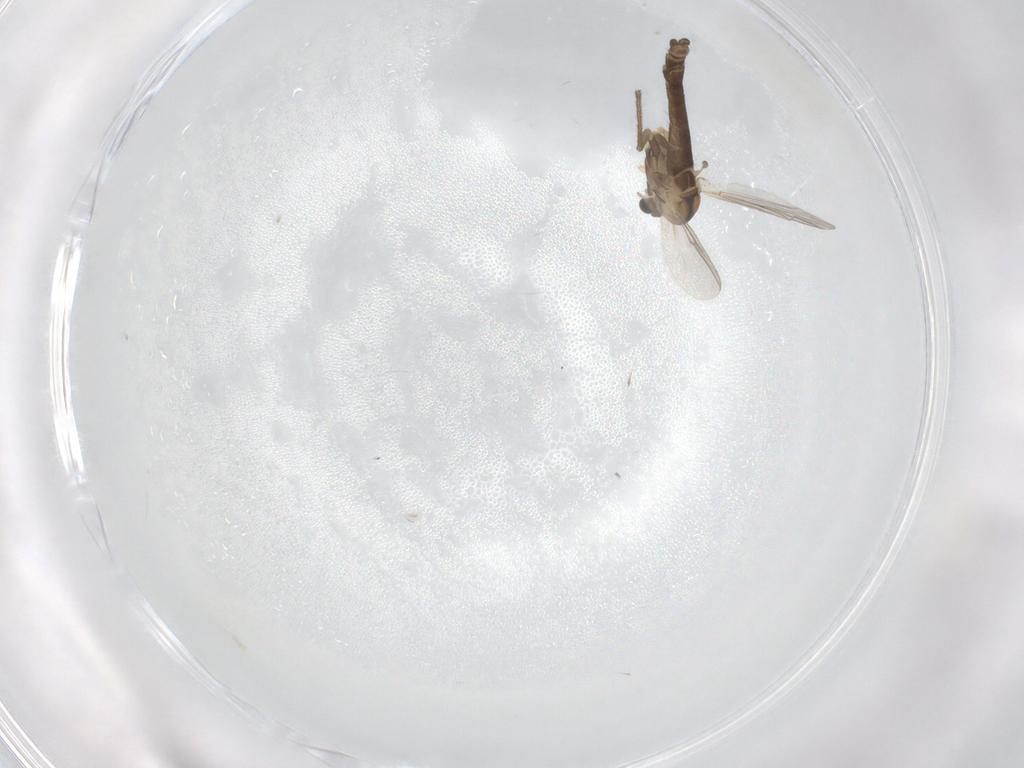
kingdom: Animalia
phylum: Arthropoda
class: Insecta
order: Diptera
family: Chironomidae
